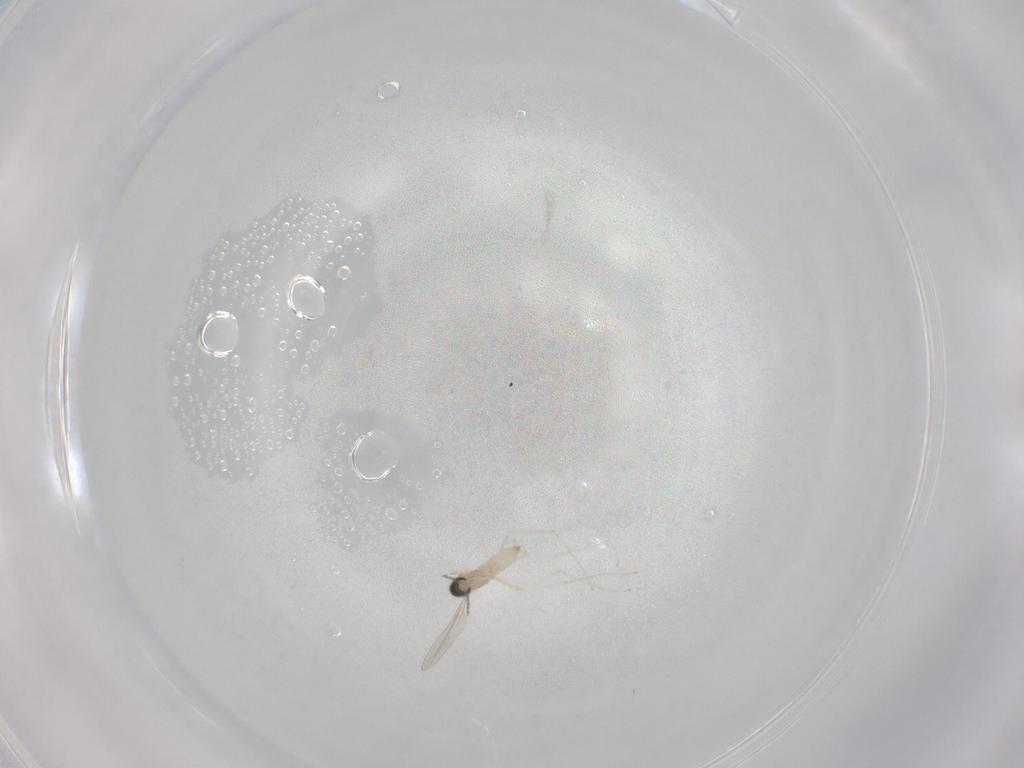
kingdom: Animalia
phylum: Arthropoda
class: Insecta
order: Diptera
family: Cecidomyiidae
